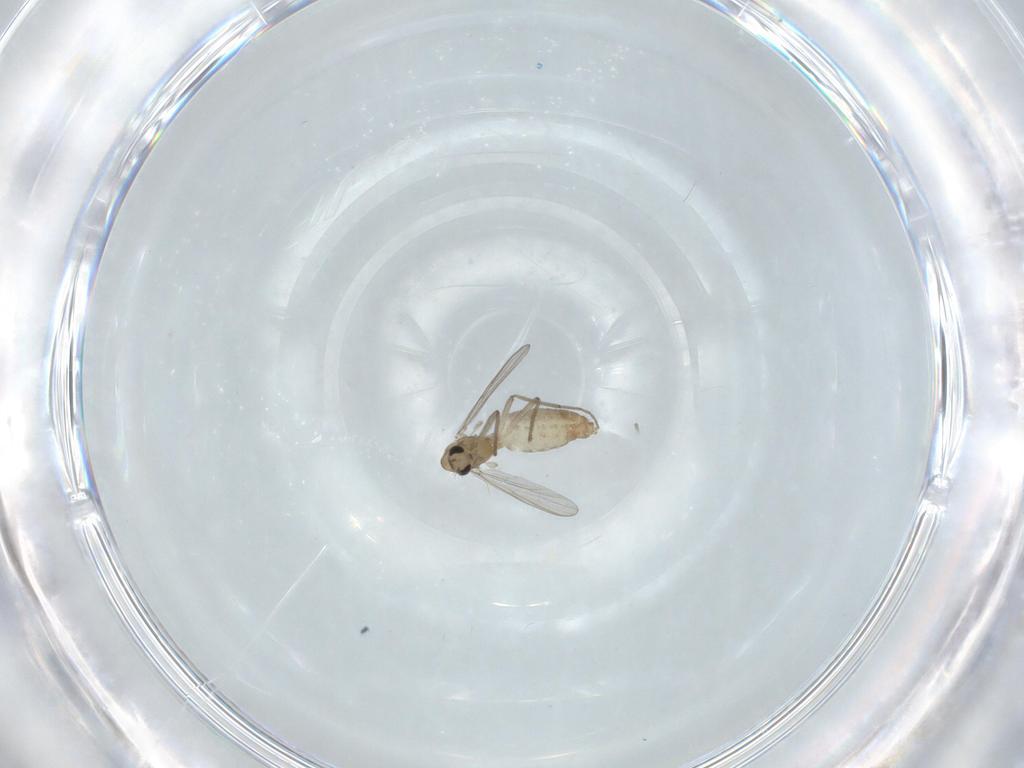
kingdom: Animalia
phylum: Arthropoda
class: Insecta
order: Diptera
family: Chironomidae
